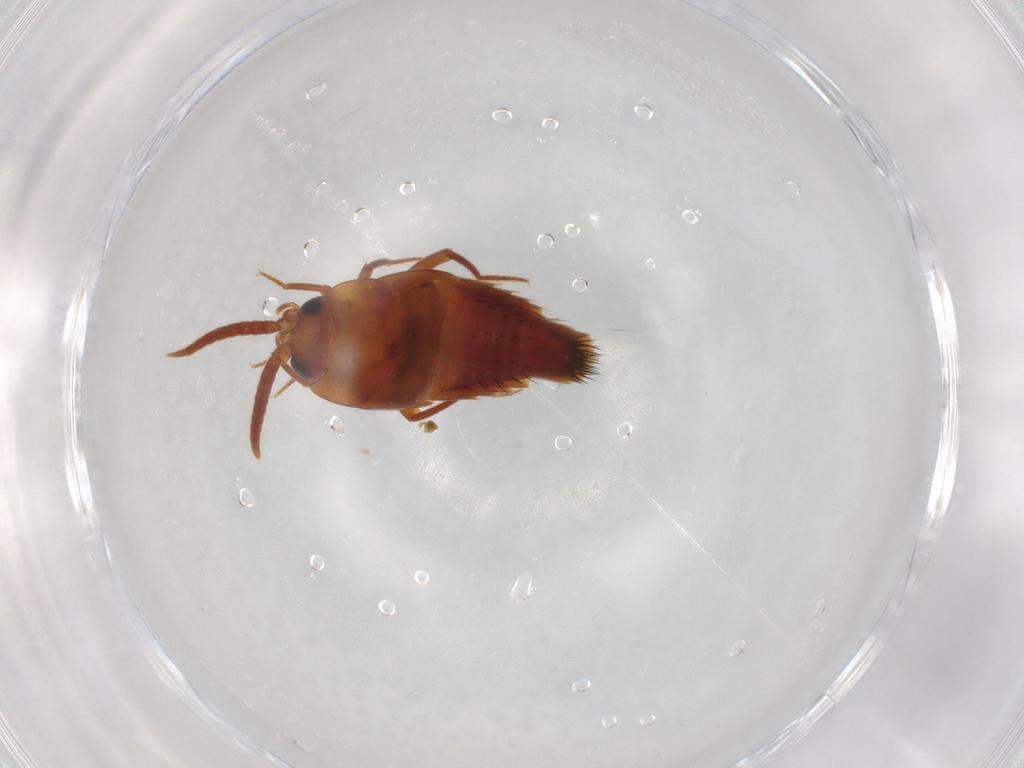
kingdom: Animalia
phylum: Arthropoda
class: Insecta
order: Coleoptera
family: Staphylinidae
